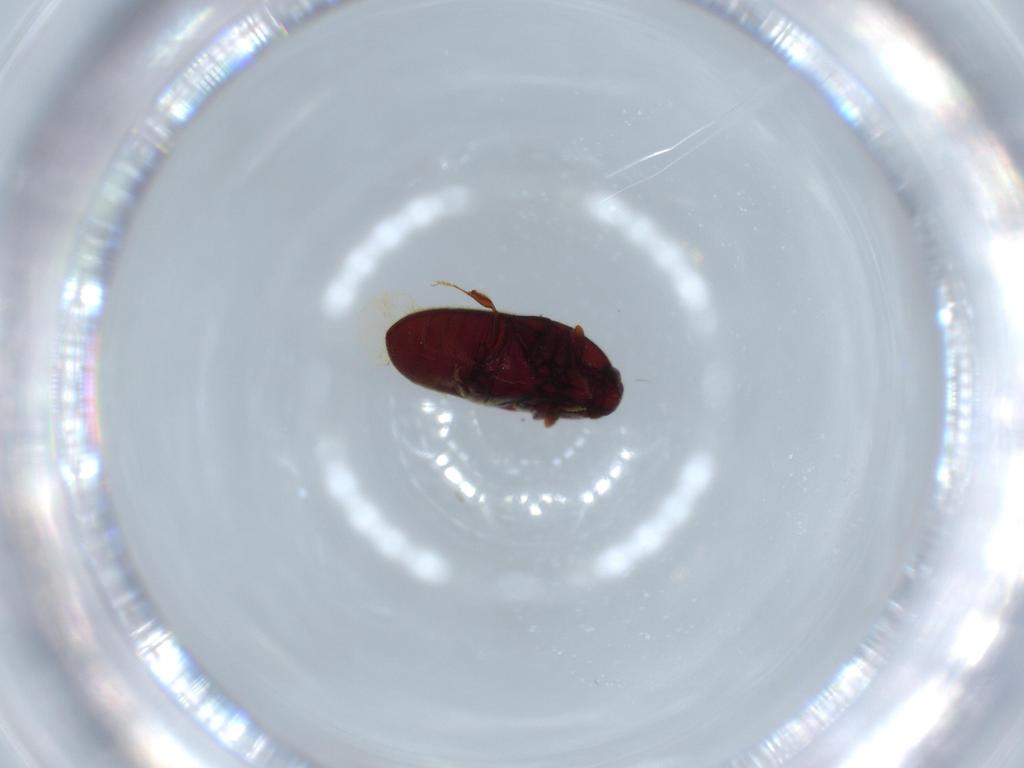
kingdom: Animalia
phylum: Arthropoda
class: Insecta
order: Coleoptera
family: Throscidae
